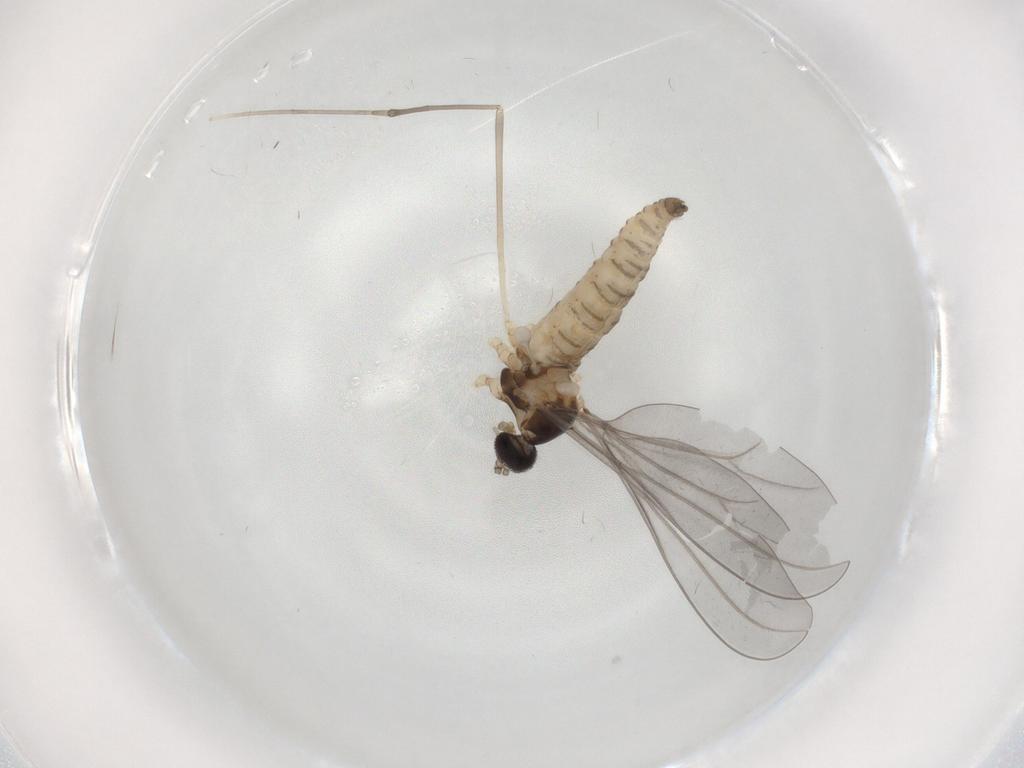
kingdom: Animalia
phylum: Arthropoda
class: Insecta
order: Diptera
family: Cecidomyiidae
